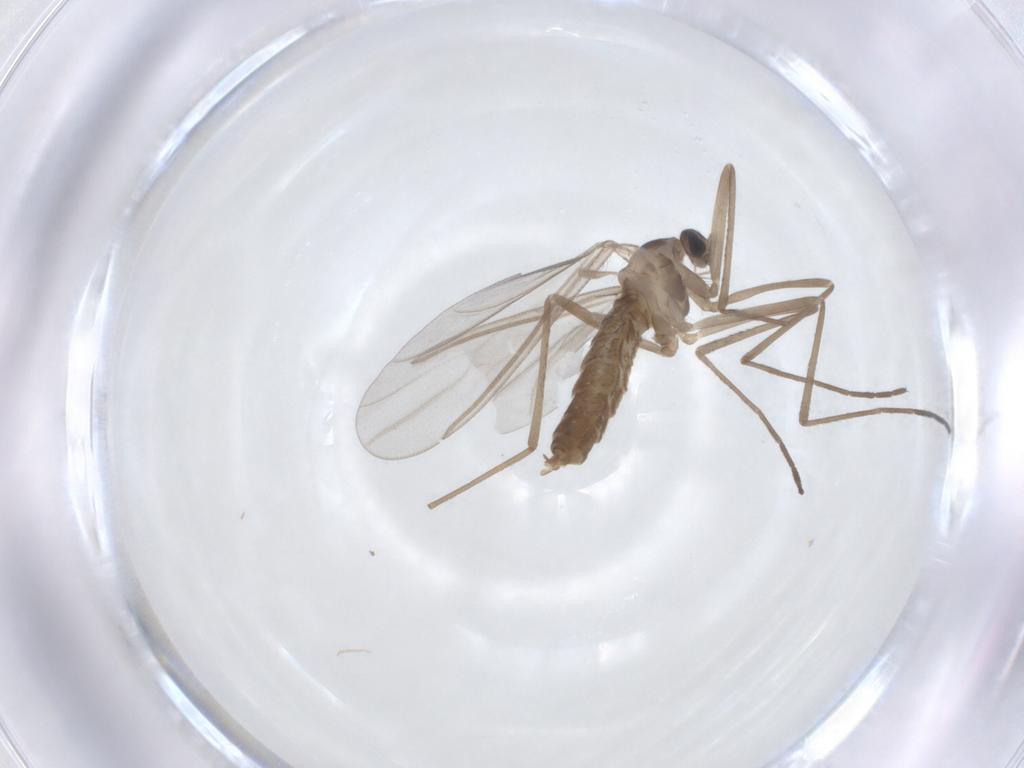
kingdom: Animalia
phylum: Arthropoda
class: Insecta
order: Diptera
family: Cecidomyiidae
